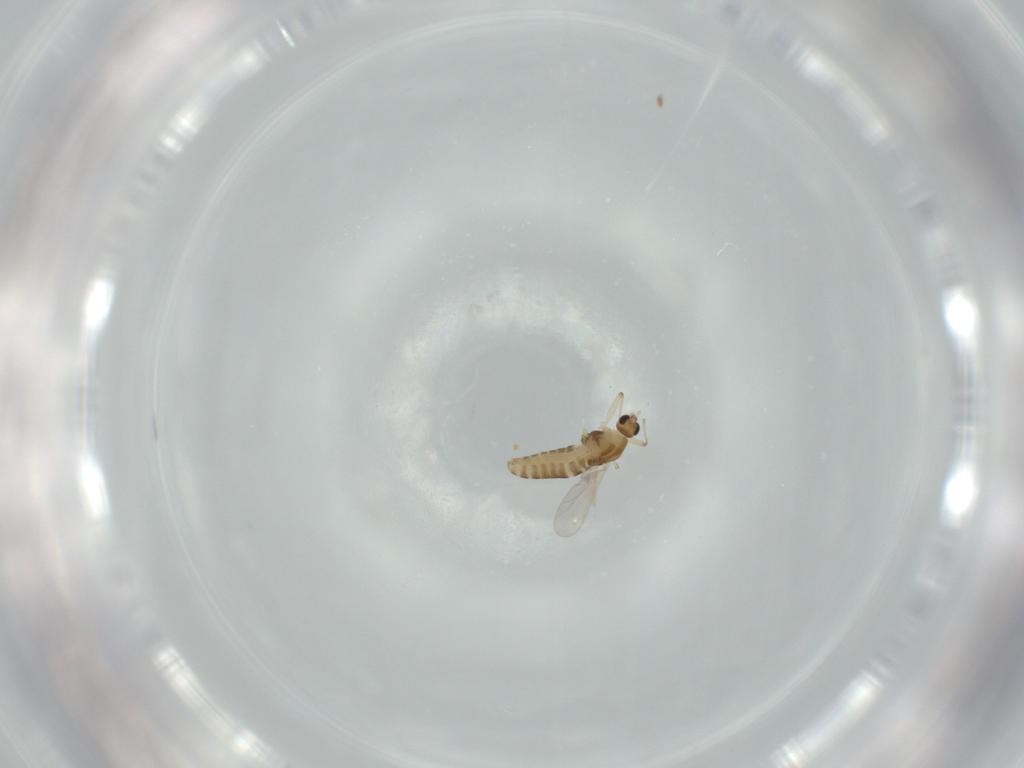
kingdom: Animalia
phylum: Arthropoda
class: Insecta
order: Diptera
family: Chironomidae
